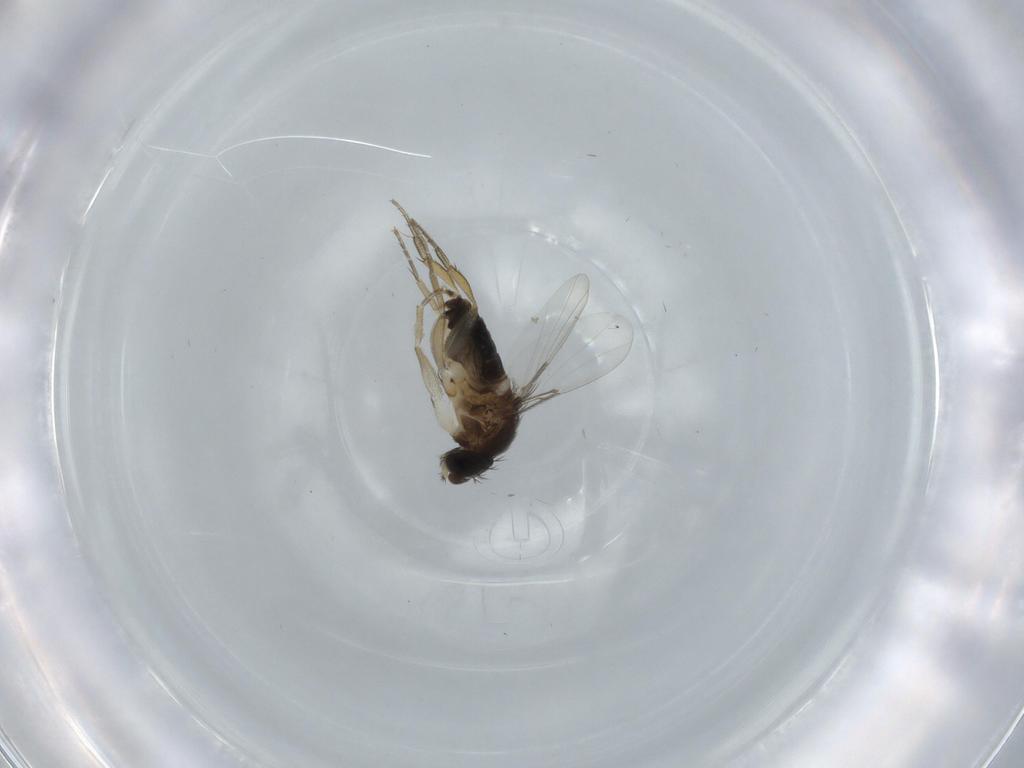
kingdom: Animalia
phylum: Arthropoda
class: Insecta
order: Diptera
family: Phoridae
